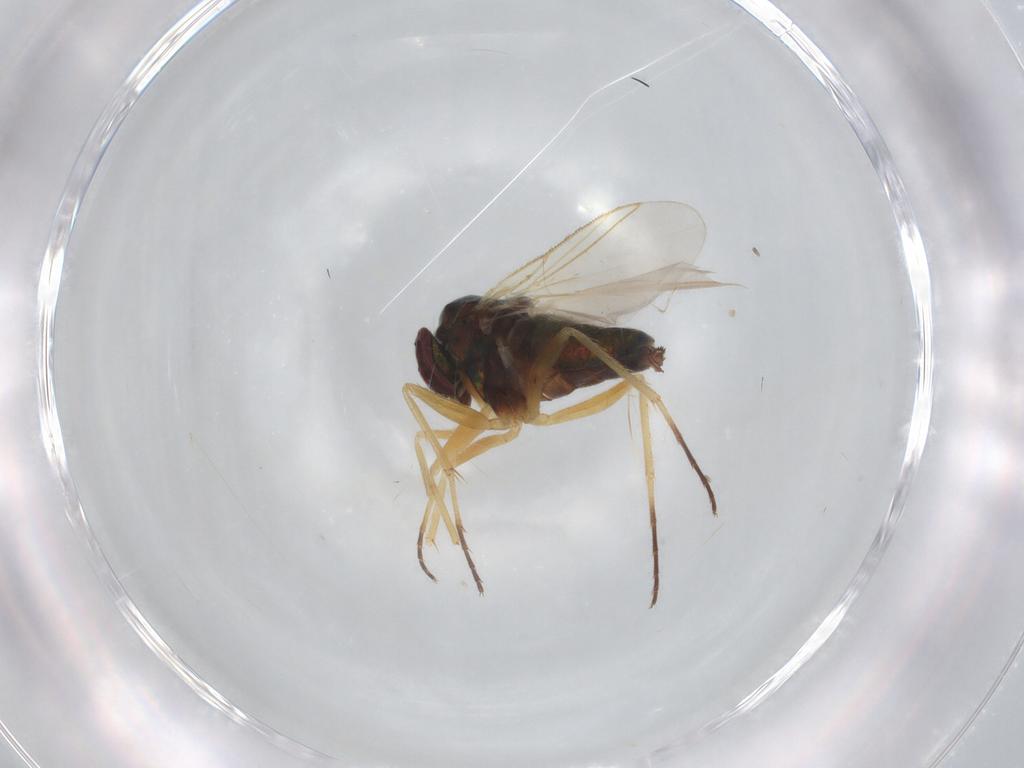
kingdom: Animalia
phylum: Arthropoda
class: Insecta
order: Diptera
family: Dolichopodidae
